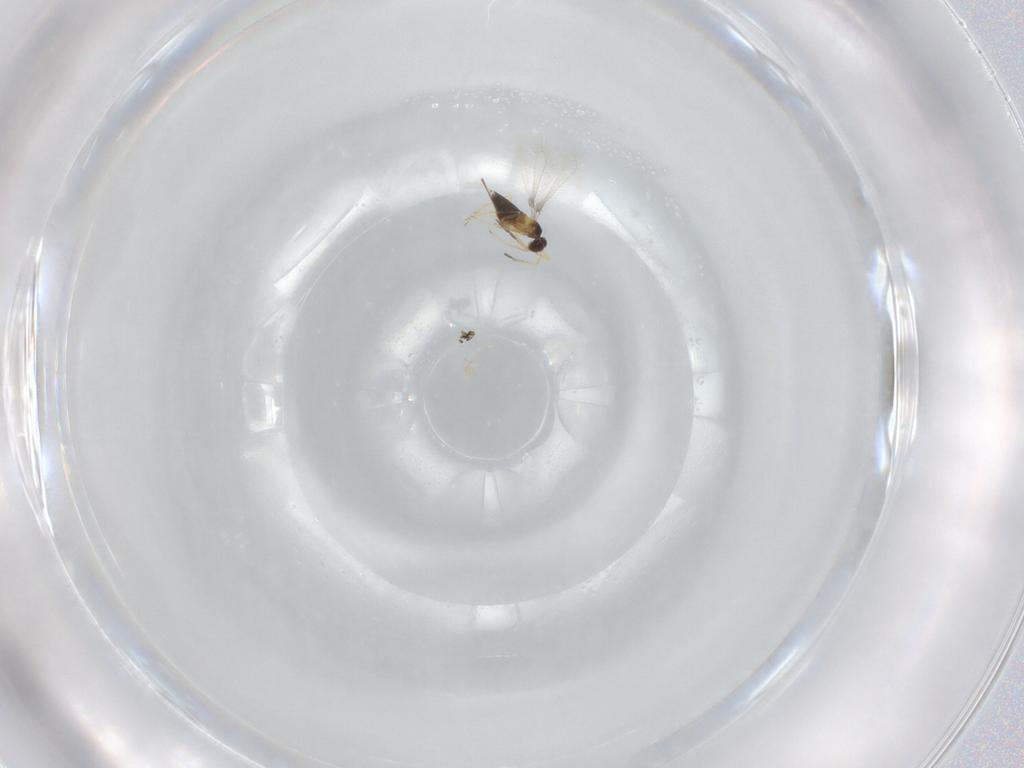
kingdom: Animalia
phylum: Arthropoda
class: Insecta
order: Hymenoptera
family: Mymaridae
